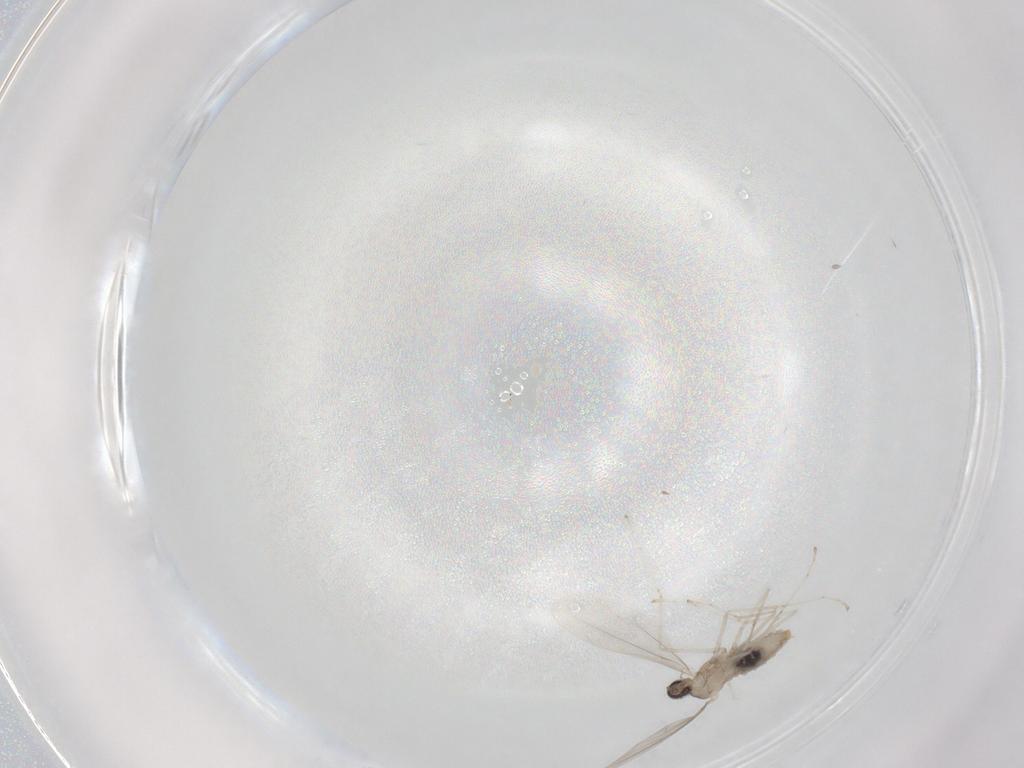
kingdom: Animalia
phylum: Arthropoda
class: Insecta
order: Diptera
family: Cecidomyiidae
